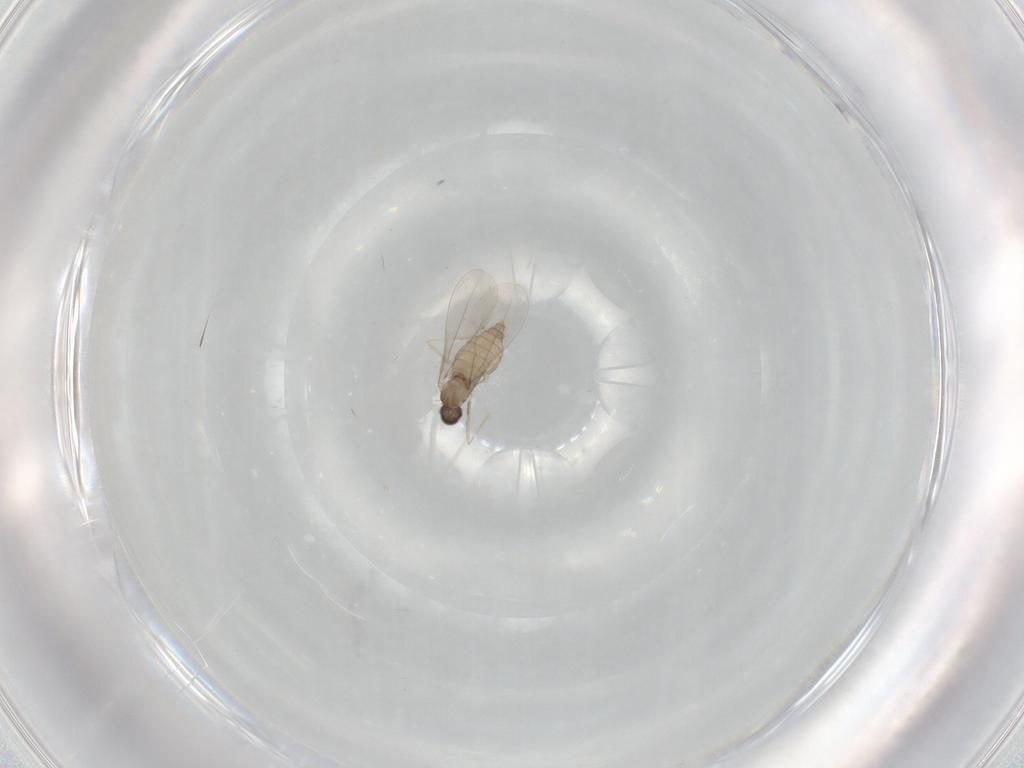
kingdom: Animalia
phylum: Arthropoda
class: Insecta
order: Diptera
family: Cecidomyiidae
